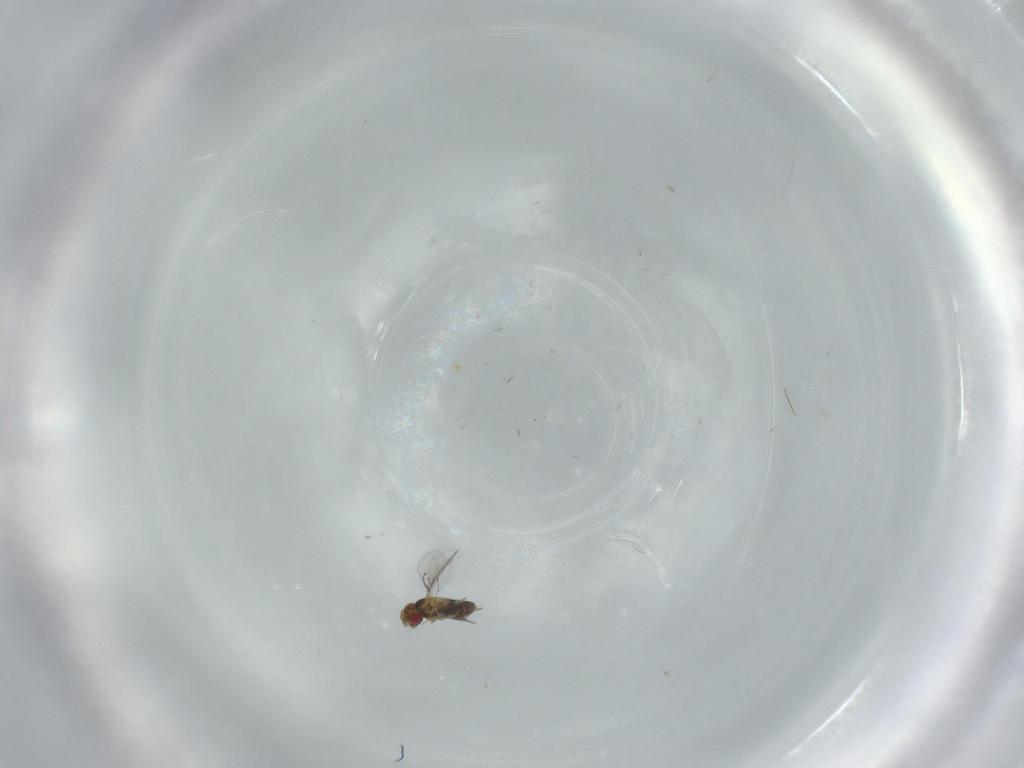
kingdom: Animalia
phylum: Arthropoda
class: Insecta
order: Hymenoptera
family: Trichogrammatidae
